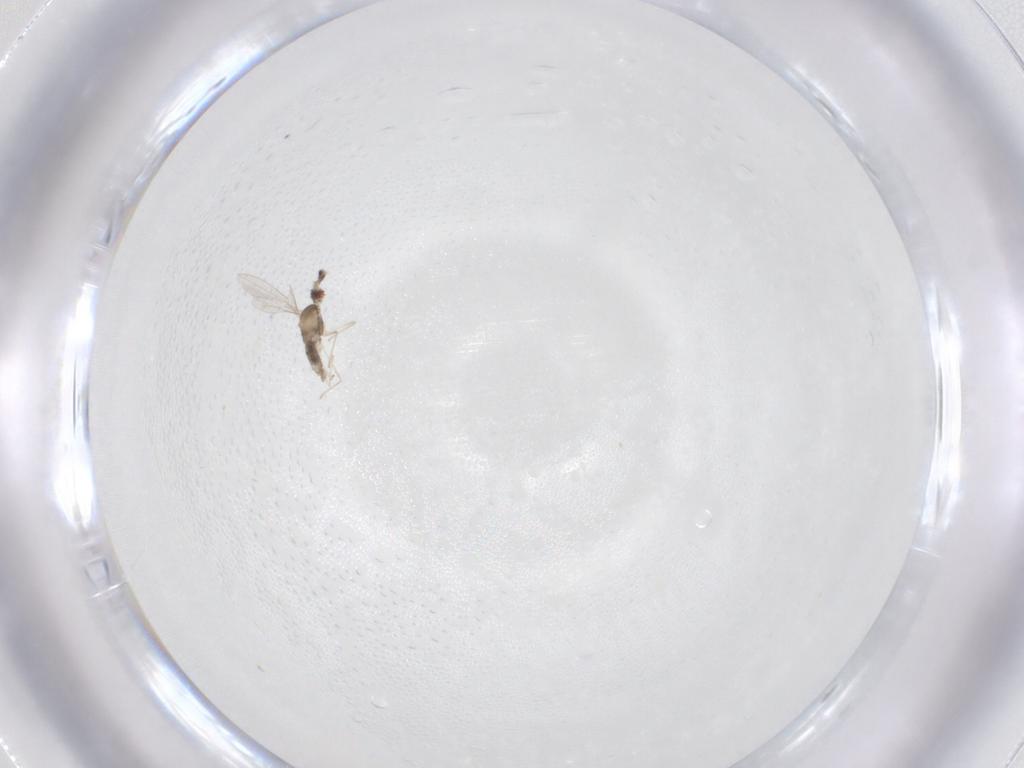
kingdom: Animalia
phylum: Arthropoda
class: Insecta
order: Diptera
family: Cecidomyiidae
